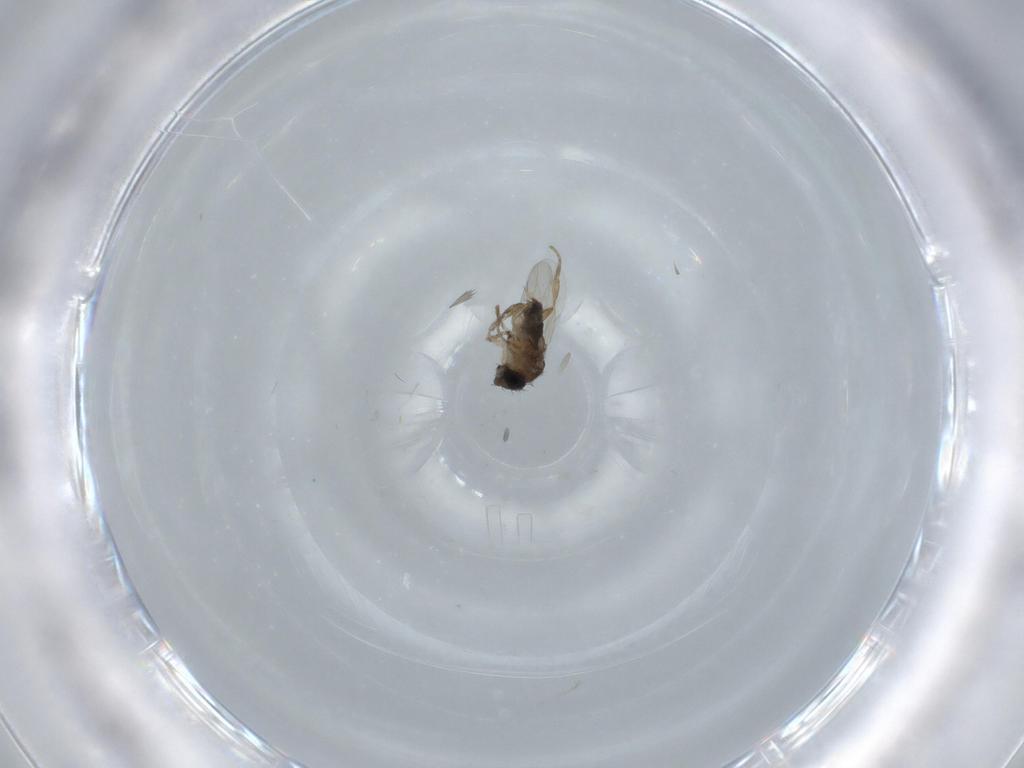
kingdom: Animalia
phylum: Arthropoda
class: Insecta
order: Diptera
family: Phoridae
